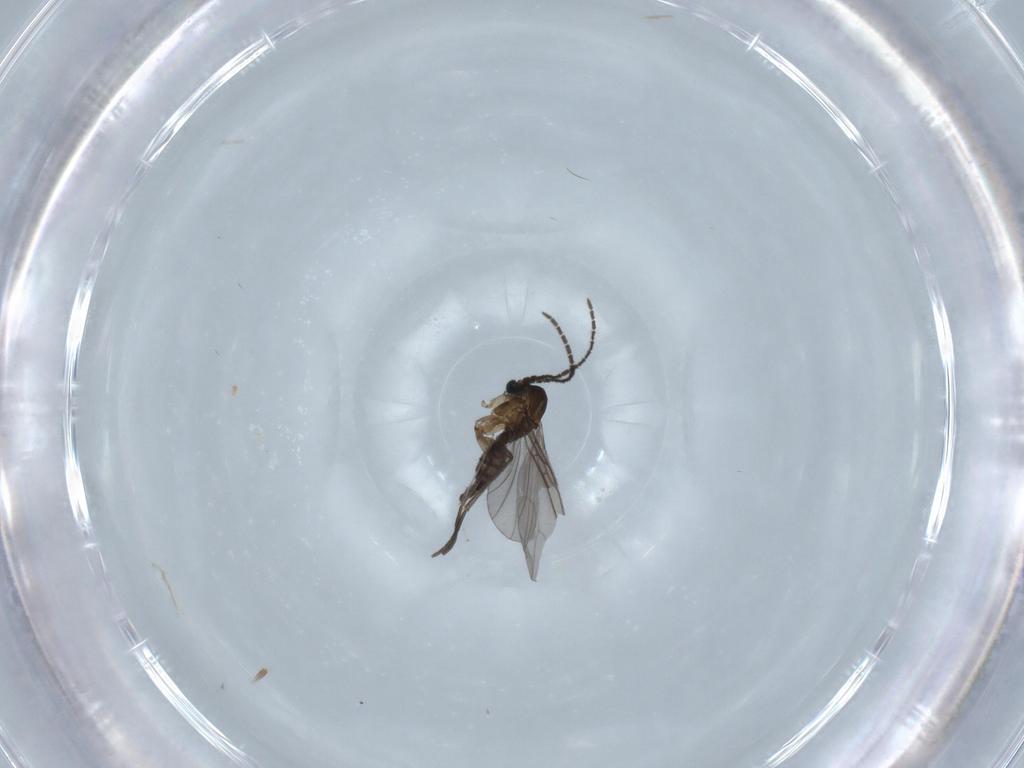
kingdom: Animalia
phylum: Arthropoda
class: Insecta
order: Diptera
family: Sciaridae
